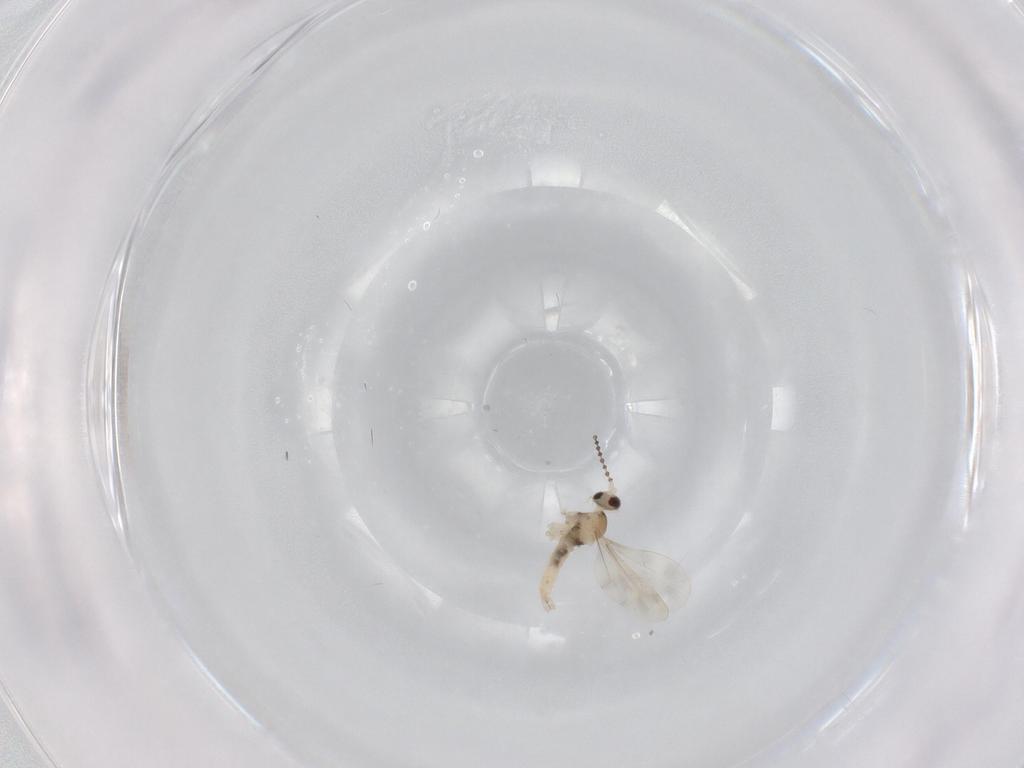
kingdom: Animalia
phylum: Arthropoda
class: Insecta
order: Diptera
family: Cecidomyiidae
